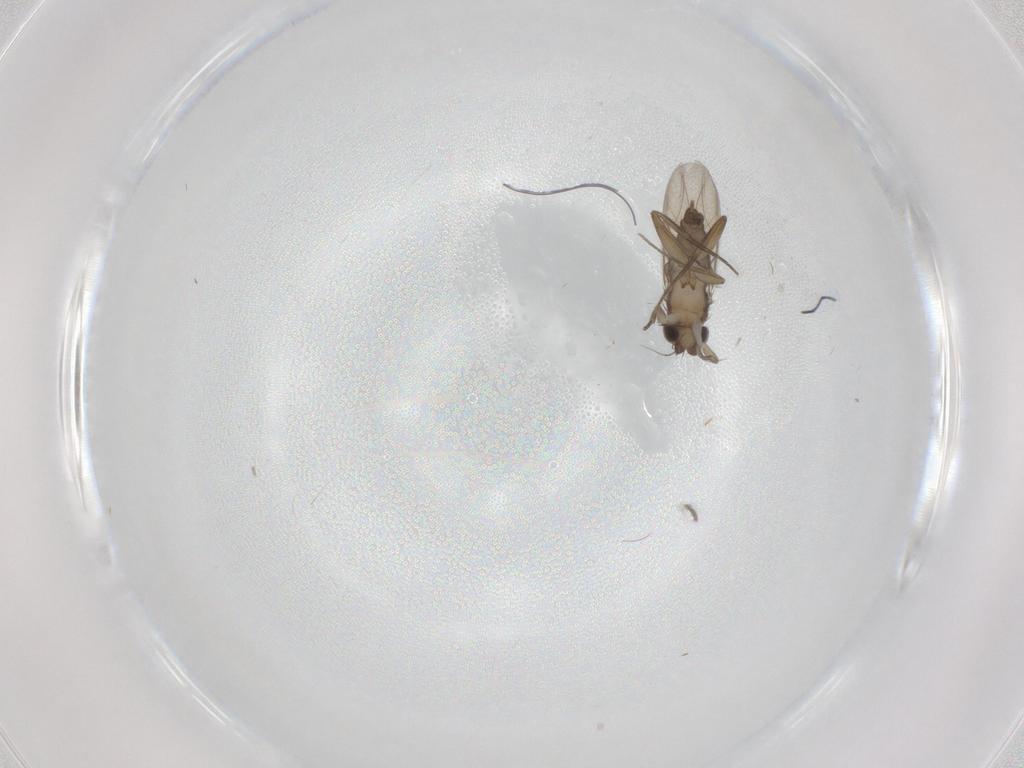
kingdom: Animalia
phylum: Arthropoda
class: Insecta
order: Diptera
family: Phoridae
